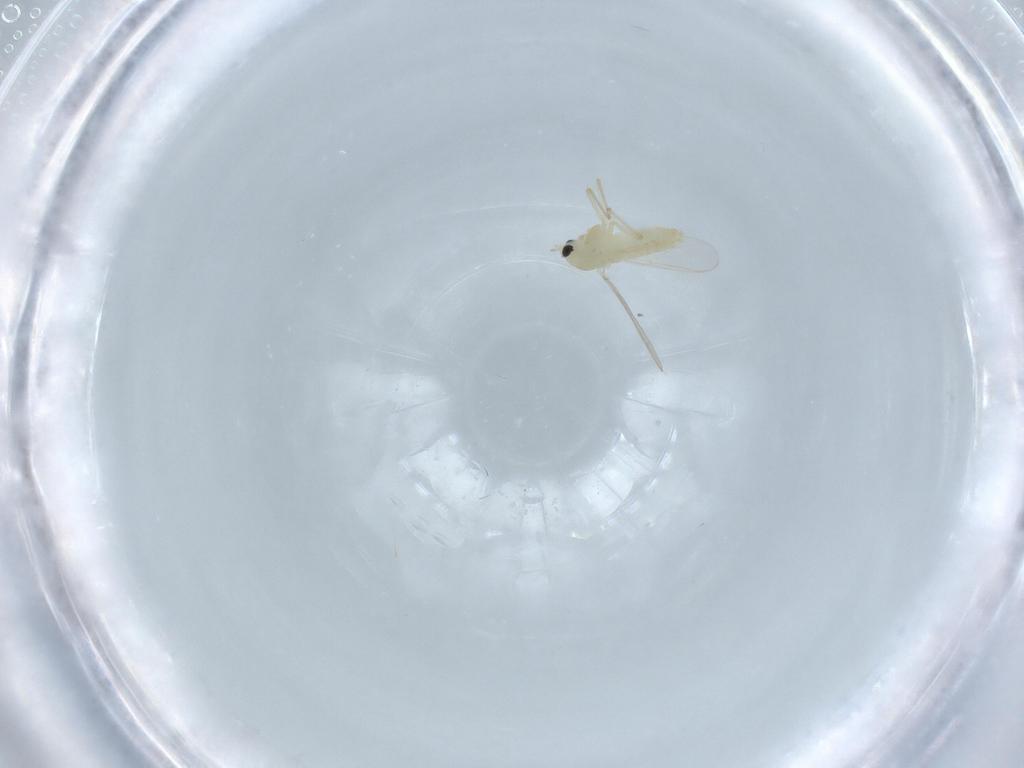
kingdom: Animalia
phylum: Arthropoda
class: Insecta
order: Diptera
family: Chironomidae
